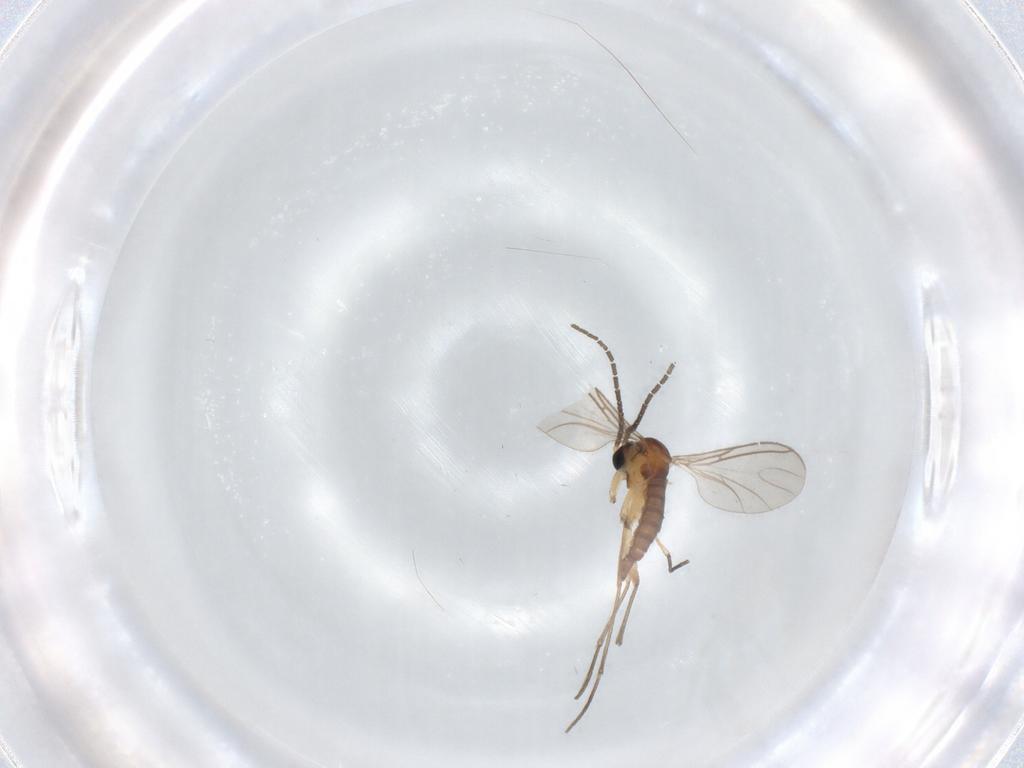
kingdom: Animalia
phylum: Arthropoda
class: Insecta
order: Diptera
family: Sciaridae
